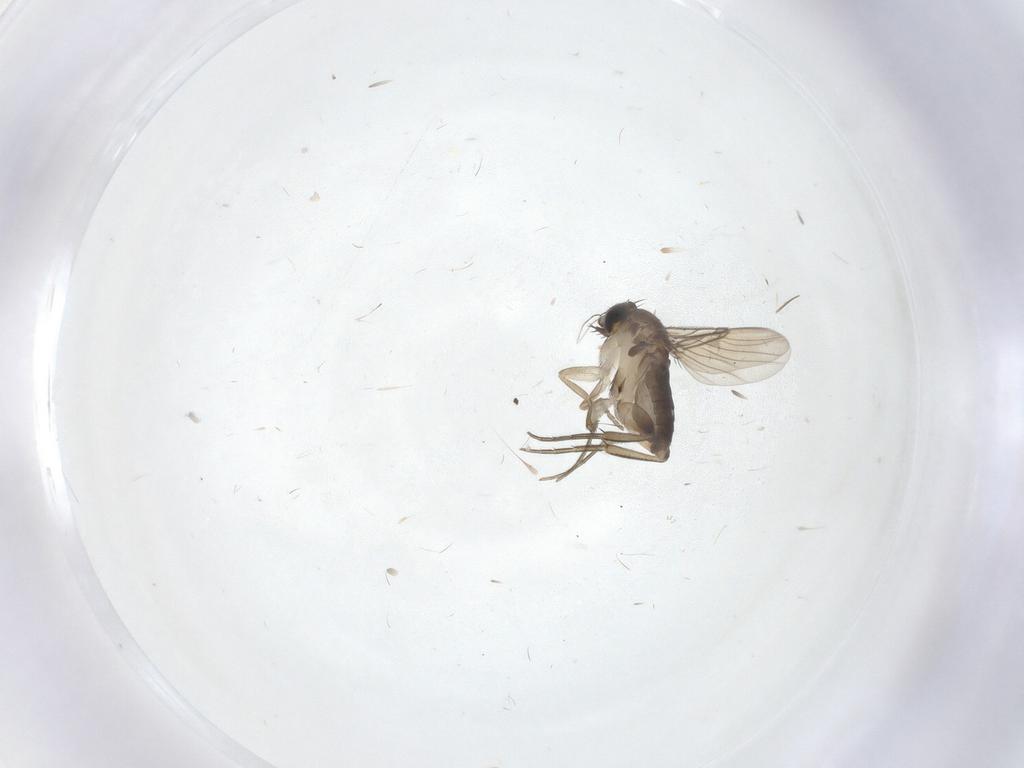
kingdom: Animalia
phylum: Arthropoda
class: Insecta
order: Diptera
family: Phoridae
